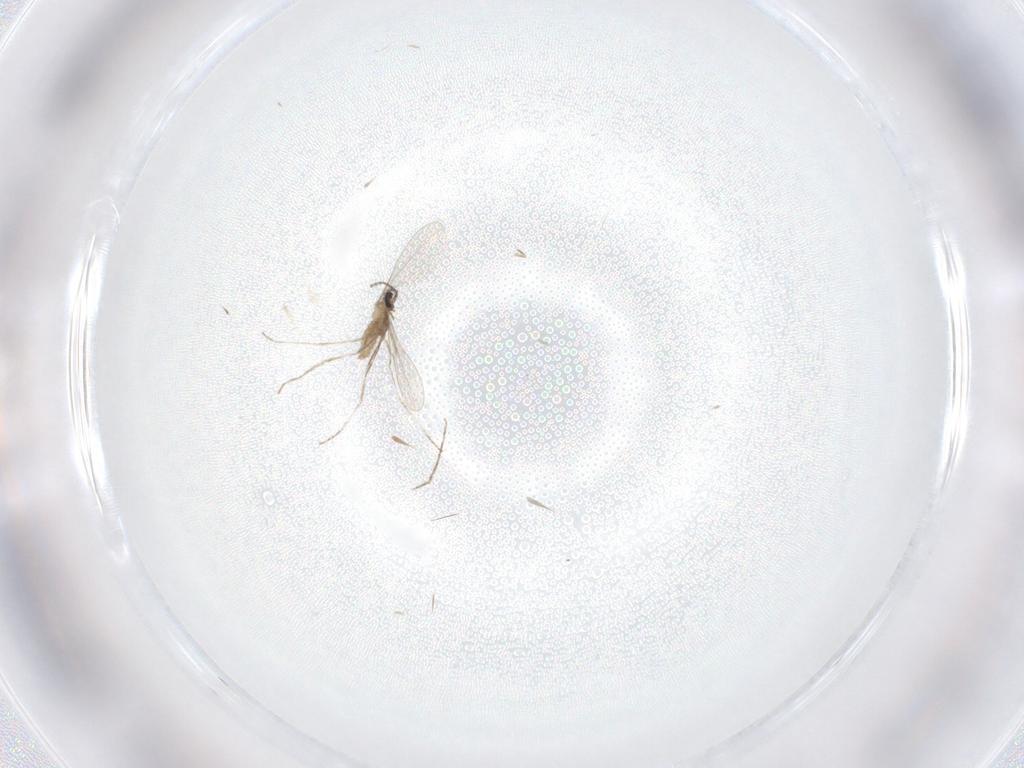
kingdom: Animalia
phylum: Arthropoda
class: Insecta
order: Diptera
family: Cecidomyiidae
